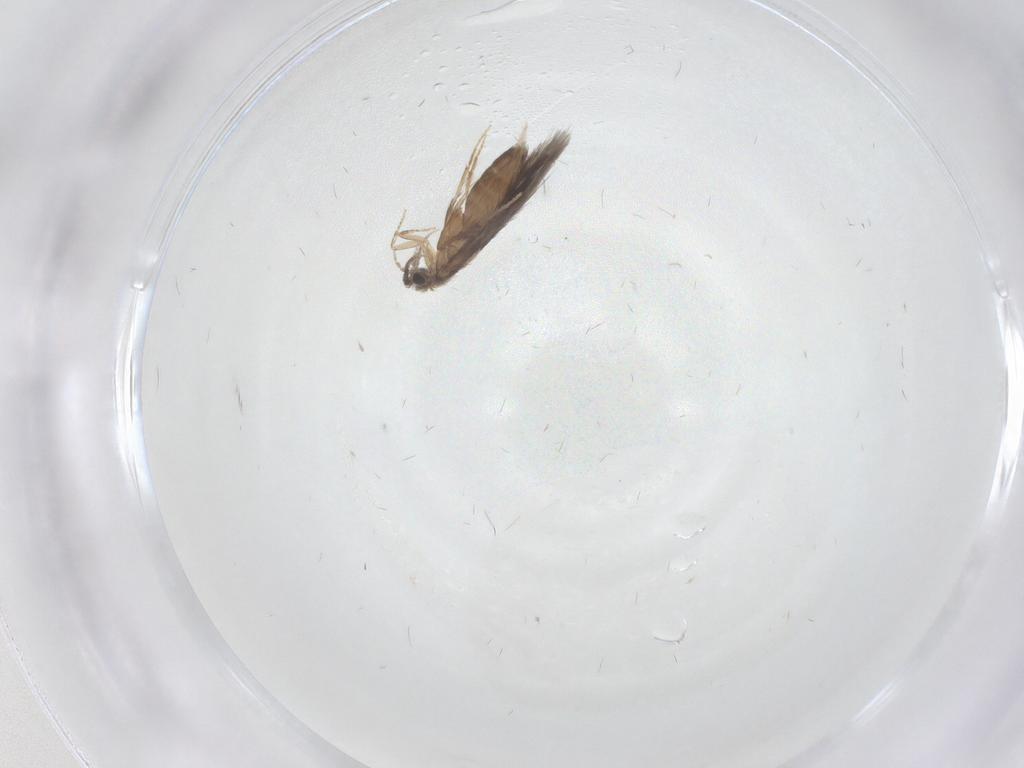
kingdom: Animalia
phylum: Arthropoda
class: Insecta
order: Trichoptera
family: Hydroptilidae
